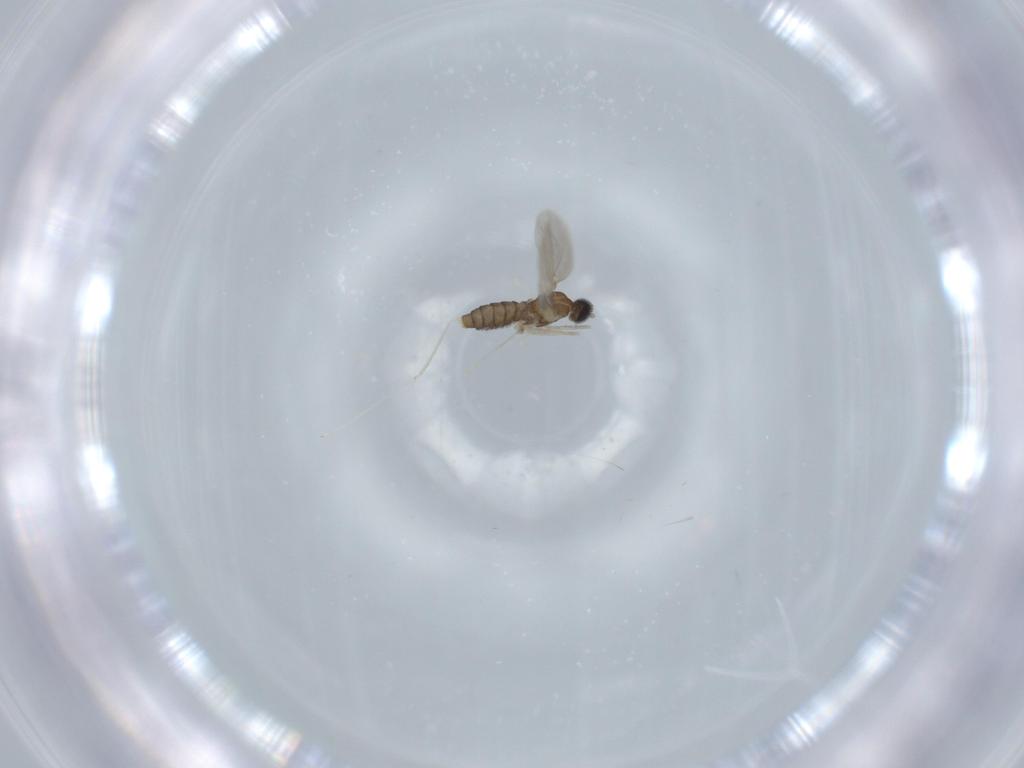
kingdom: Animalia
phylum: Arthropoda
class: Insecta
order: Diptera
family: Cecidomyiidae
